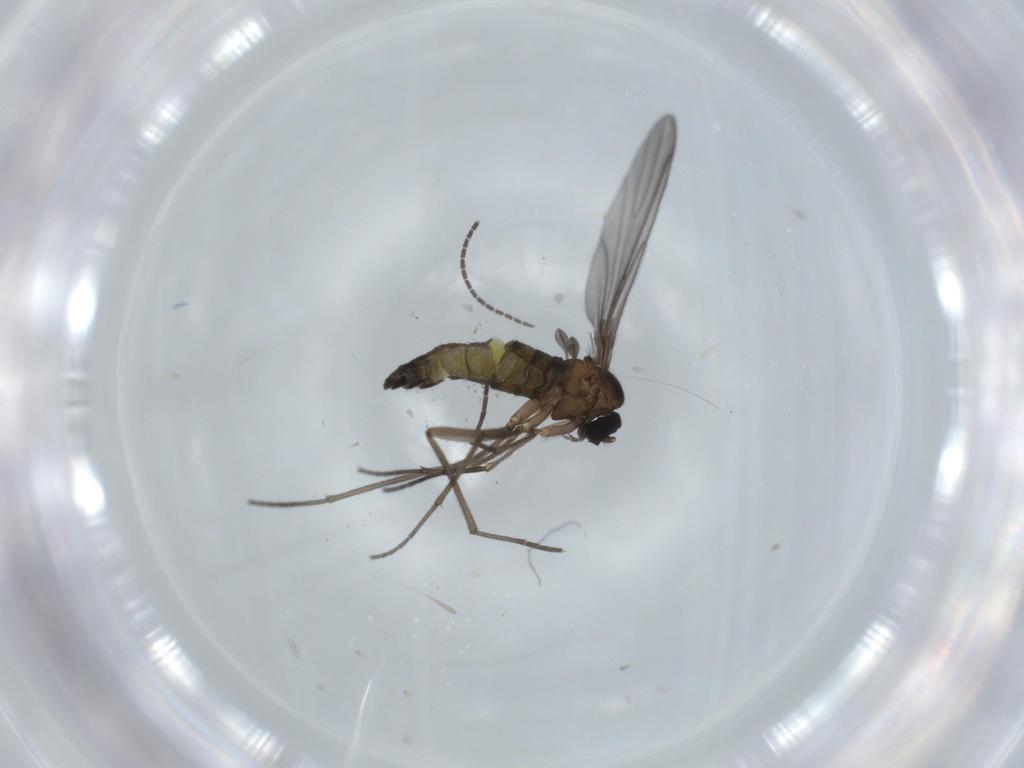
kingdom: Animalia
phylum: Arthropoda
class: Insecta
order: Diptera
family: Sciaridae
